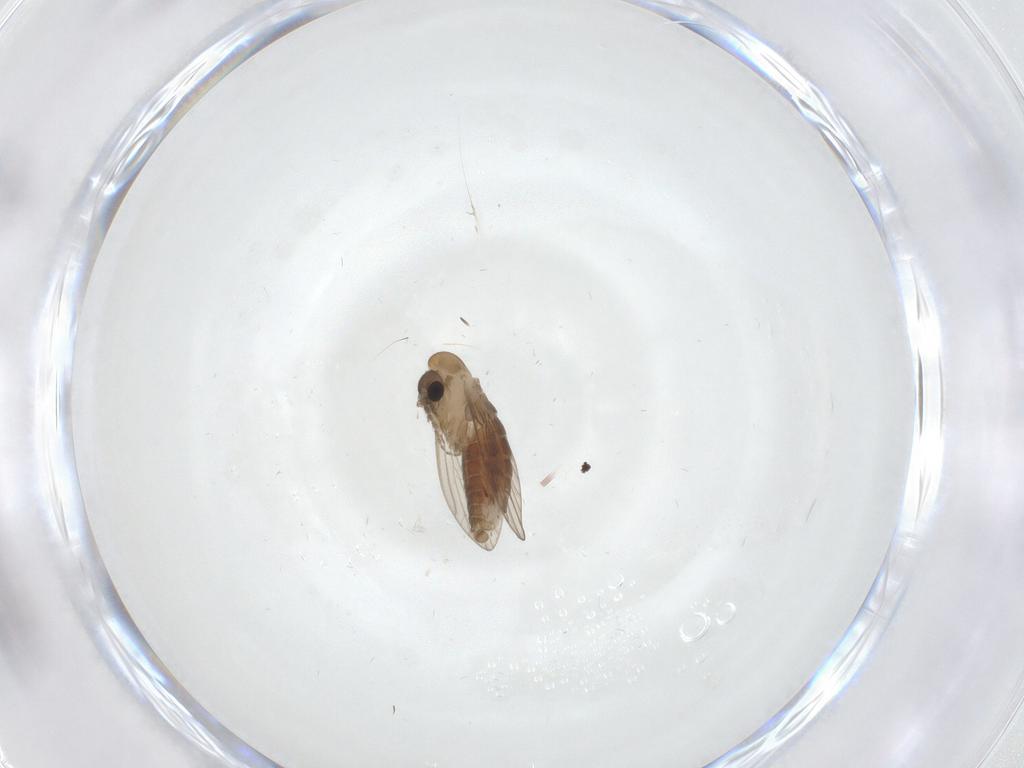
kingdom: Animalia
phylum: Arthropoda
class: Insecta
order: Diptera
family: Psychodidae
